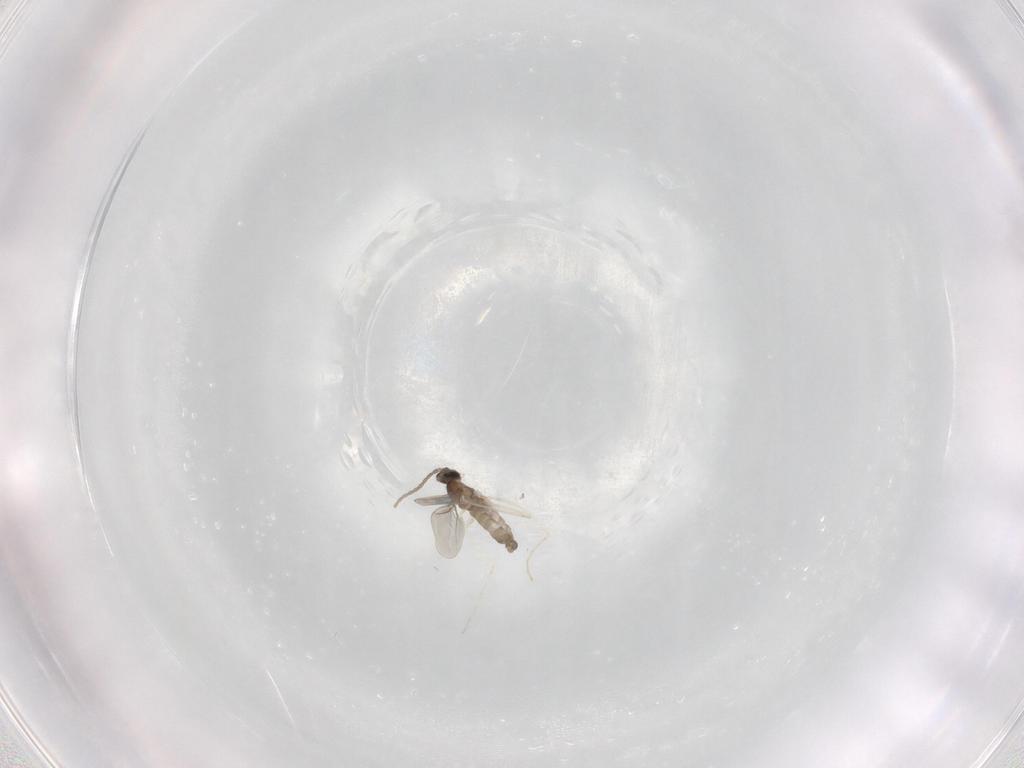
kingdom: Animalia
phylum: Arthropoda
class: Insecta
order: Diptera
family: Cecidomyiidae
